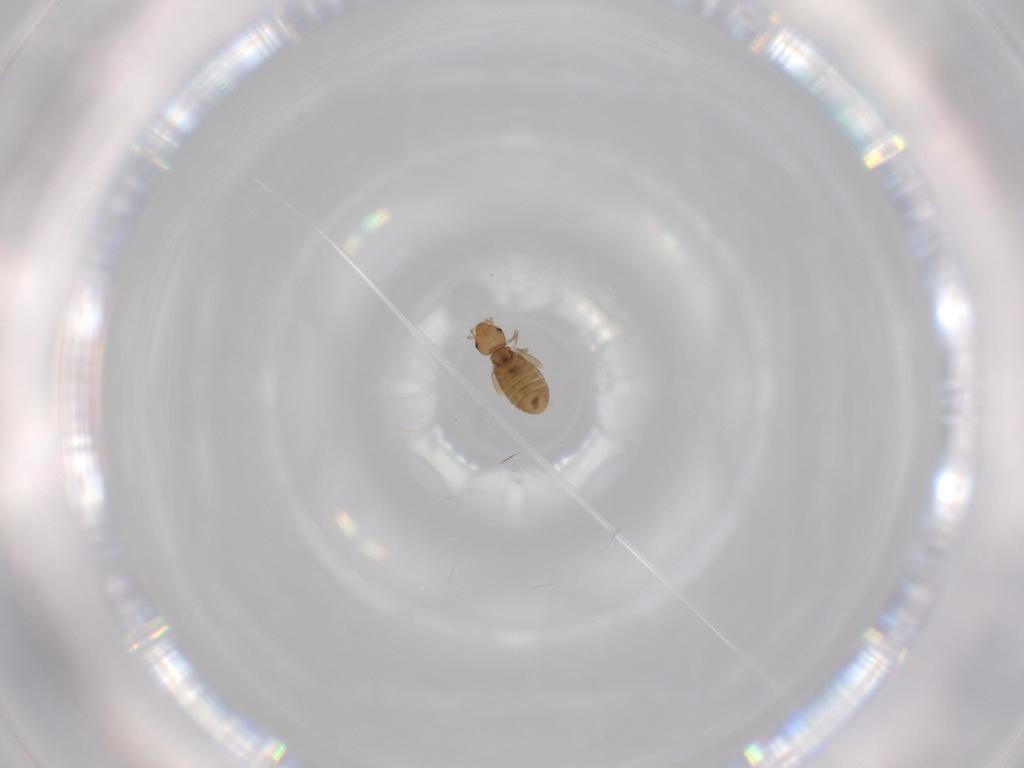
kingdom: Animalia
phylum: Arthropoda
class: Insecta
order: Psocodea
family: Liposcelididae
